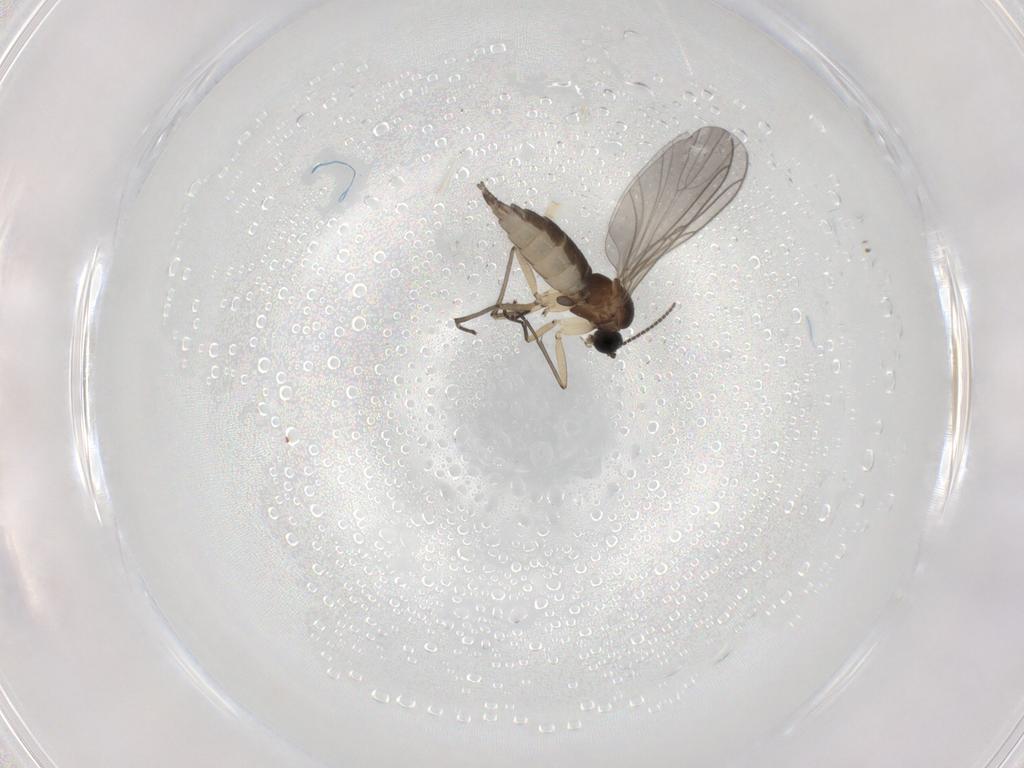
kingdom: Animalia
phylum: Arthropoda
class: Insecta
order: Diptera
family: Sciaridae
